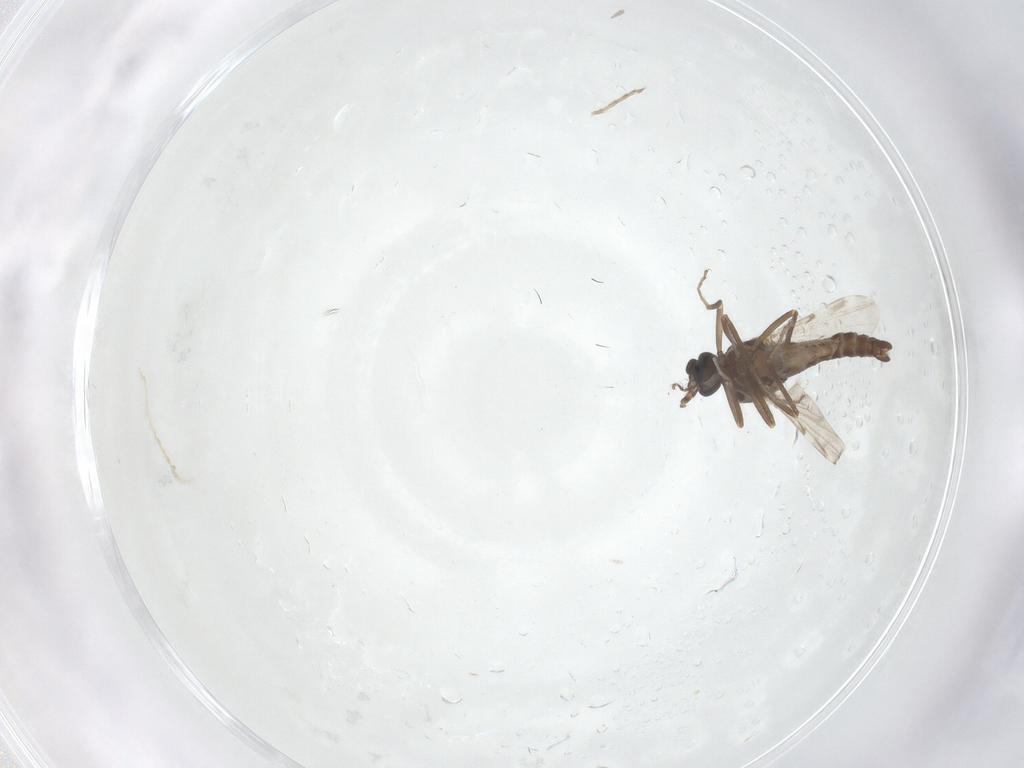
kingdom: Animalia
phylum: Arthropoda
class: Insecta
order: Diptera
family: Ceratopogonidae
